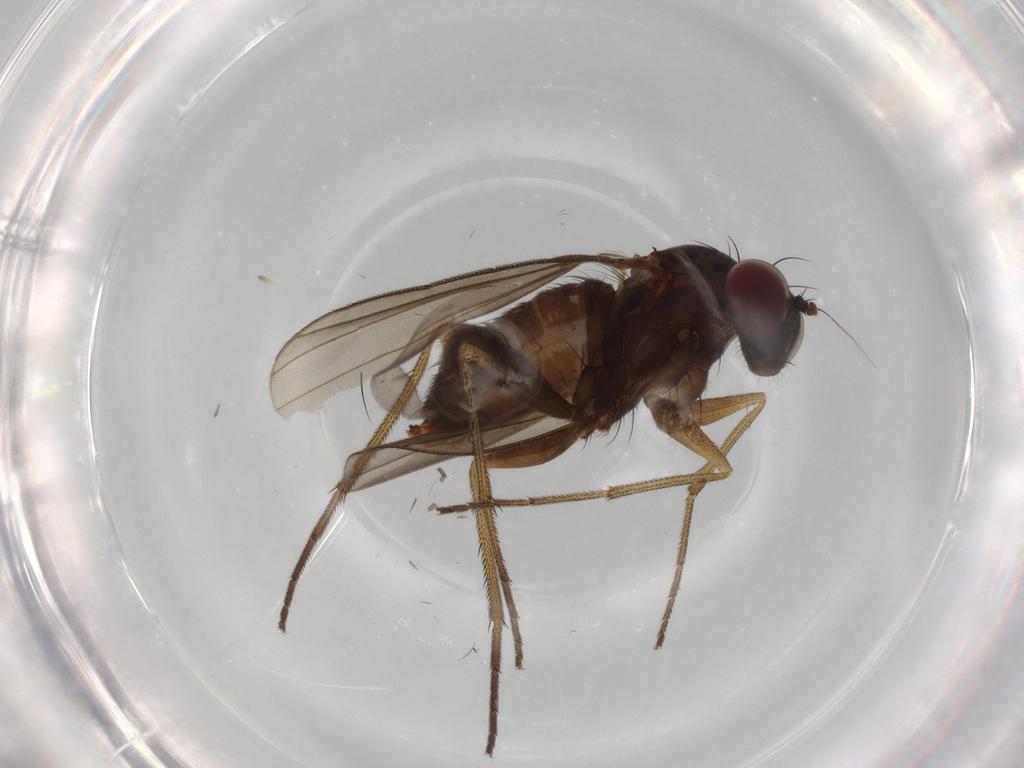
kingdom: Animalia
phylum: Arthropoda
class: Insecta
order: Diptera
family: Dolichopodidae
